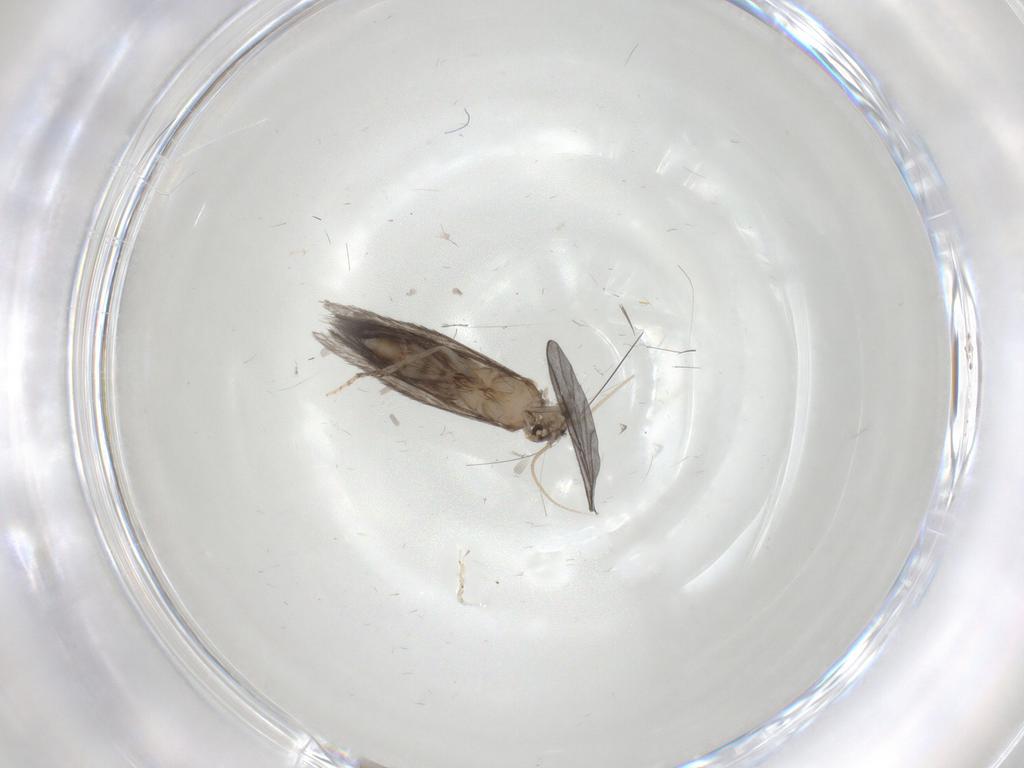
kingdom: Animalia
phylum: Arthropoda
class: Insecta
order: Trichoptera
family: Hydroptilidae
